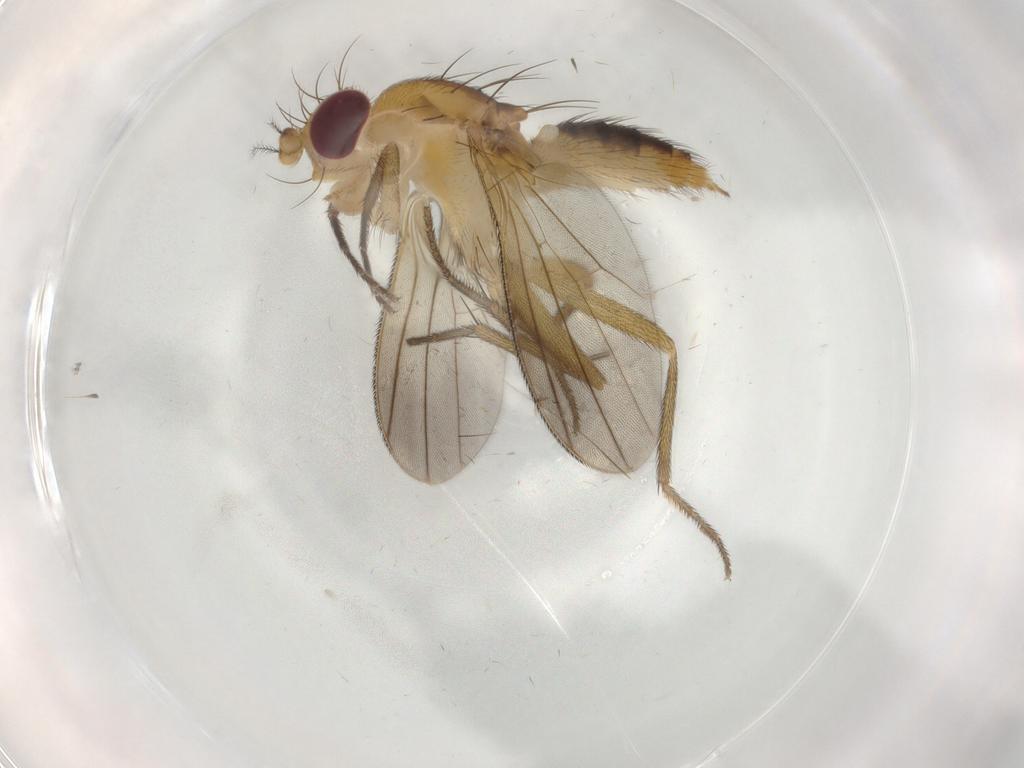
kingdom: Animalia
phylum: Arthropoda
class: Insecta
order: Diptera
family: Clusiidae
